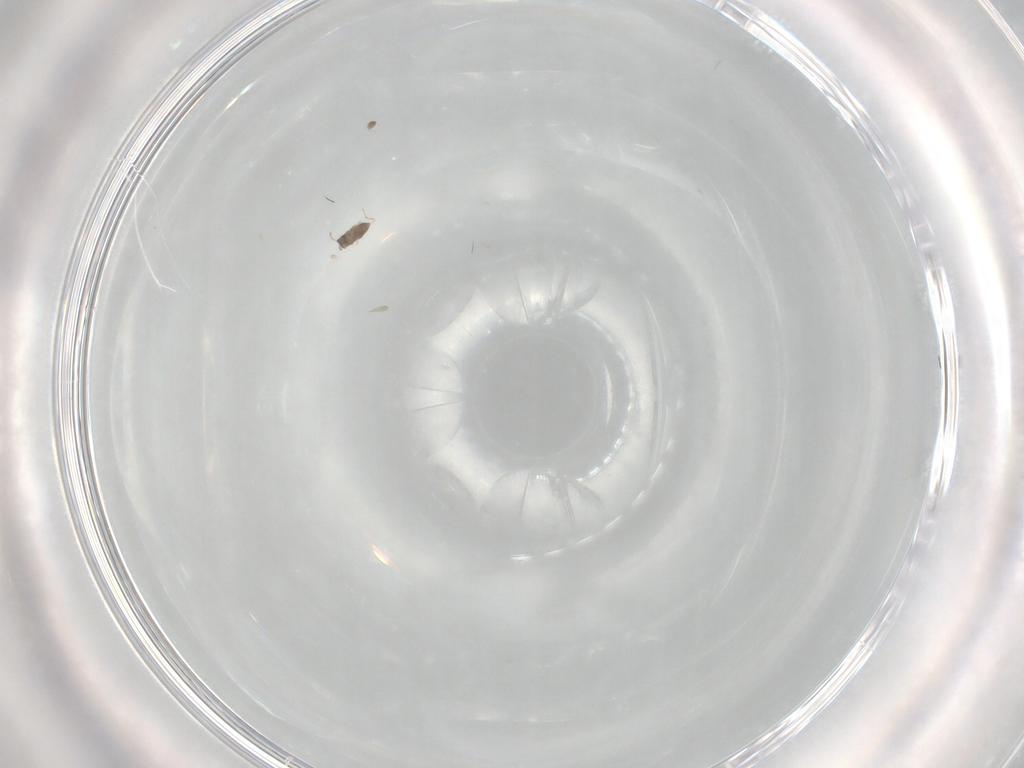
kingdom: Animalia
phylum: Arthropoda
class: Insecta
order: Hymenoptera
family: Mymaridae
